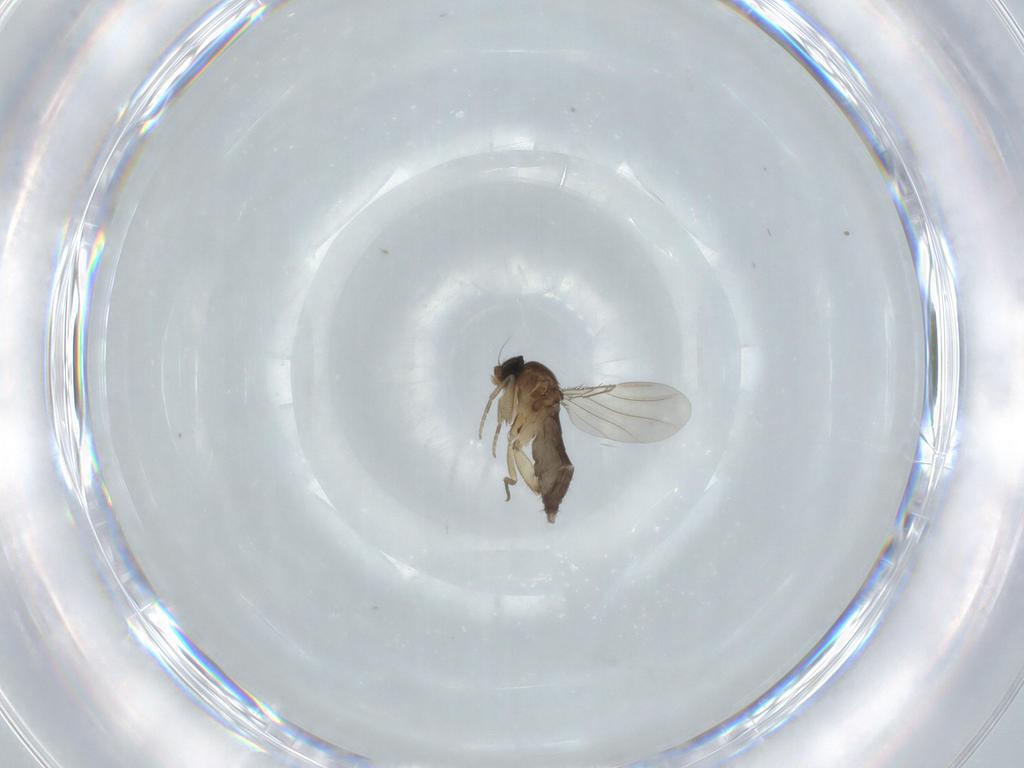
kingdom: Animalia
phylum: Arthropoda
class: Insecta
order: Diptera
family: Phoridae
